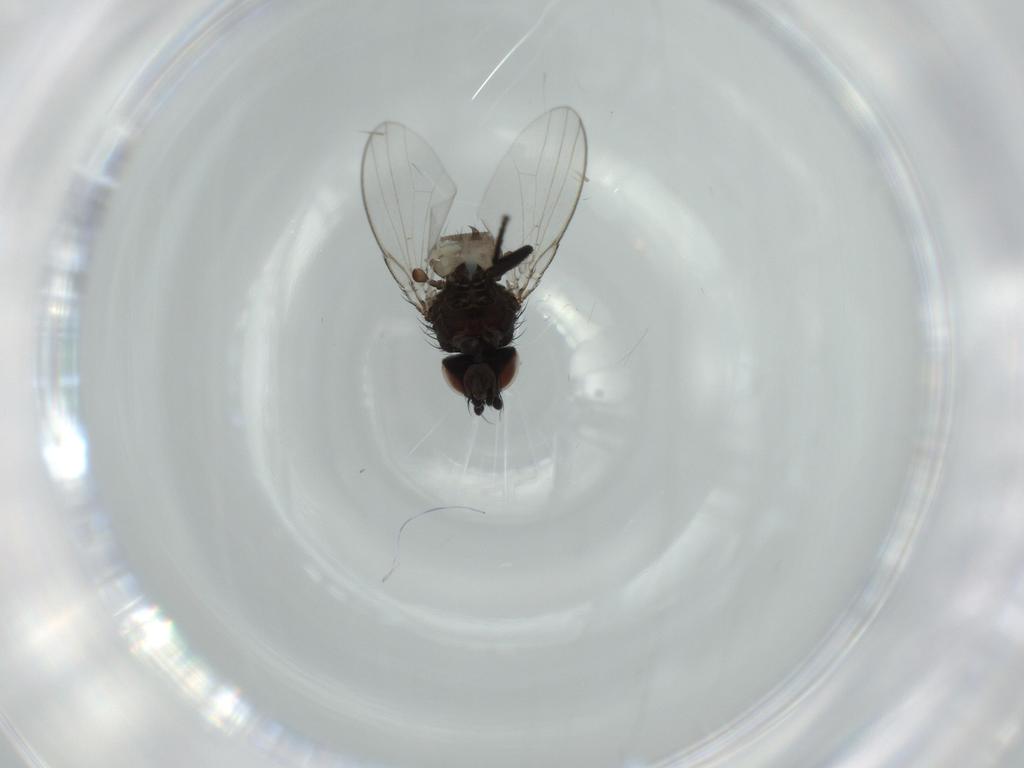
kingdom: Animalia
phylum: Arthropoda
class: Insecta
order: Diptera
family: Milichiidae
